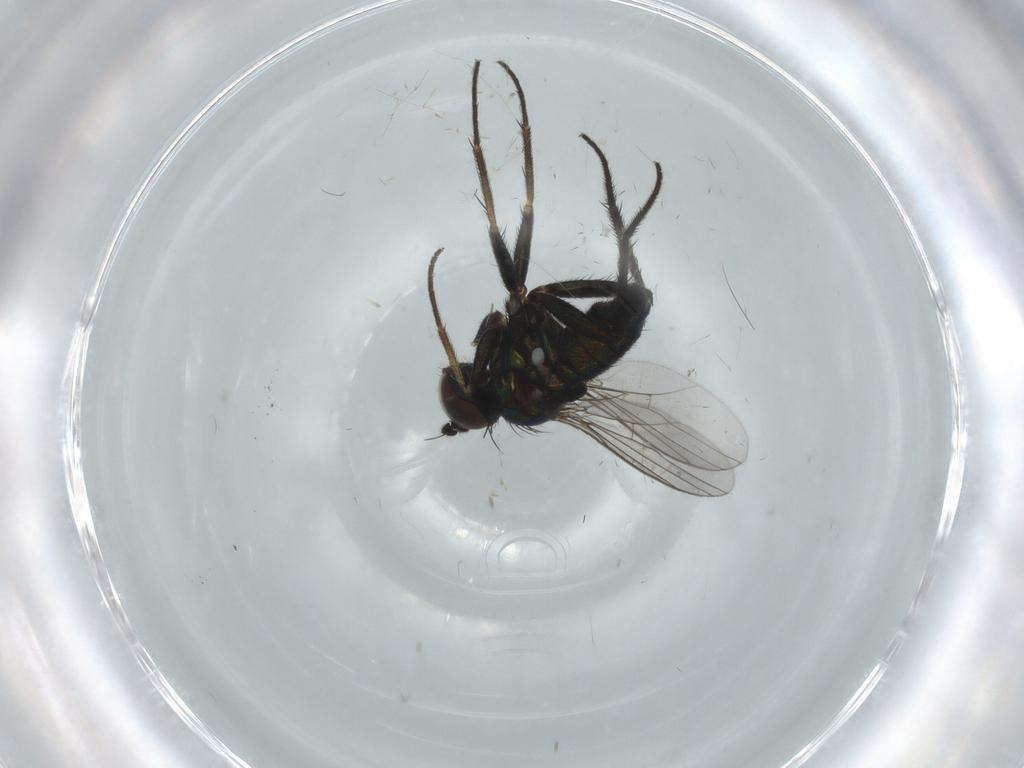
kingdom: Animalia
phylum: Arthropoda
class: Insecta
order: Diptera
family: Dolichopodidae
